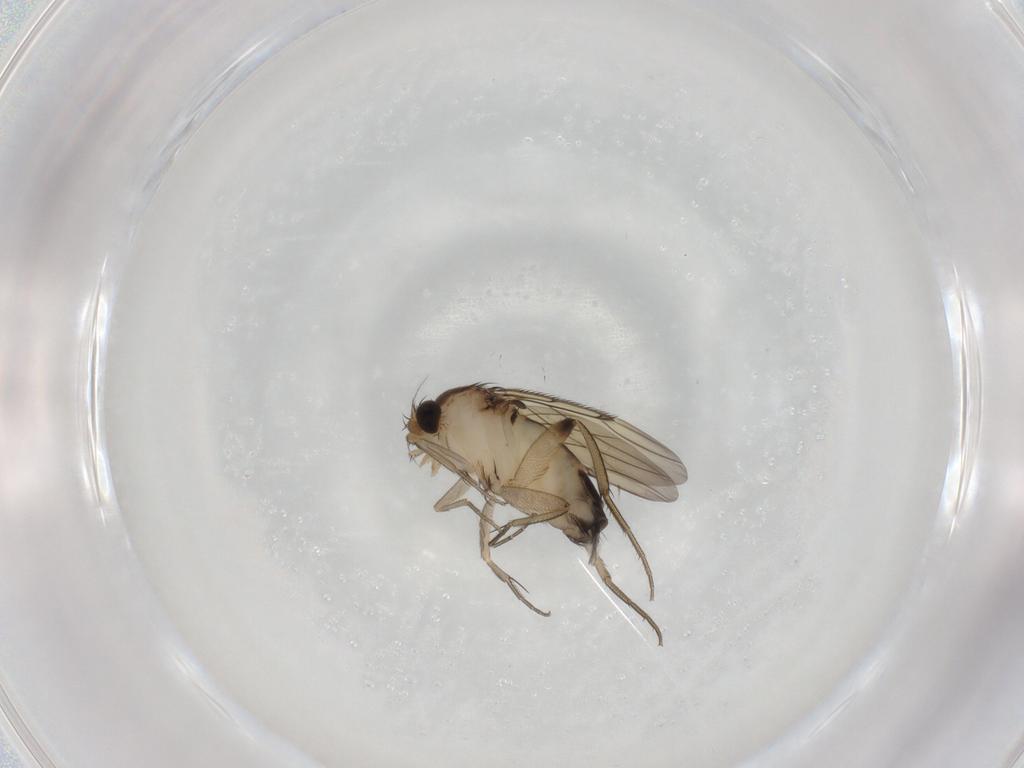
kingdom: Animalia
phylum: Arthropoda
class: Insecta
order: Diptera
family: Phoridae
